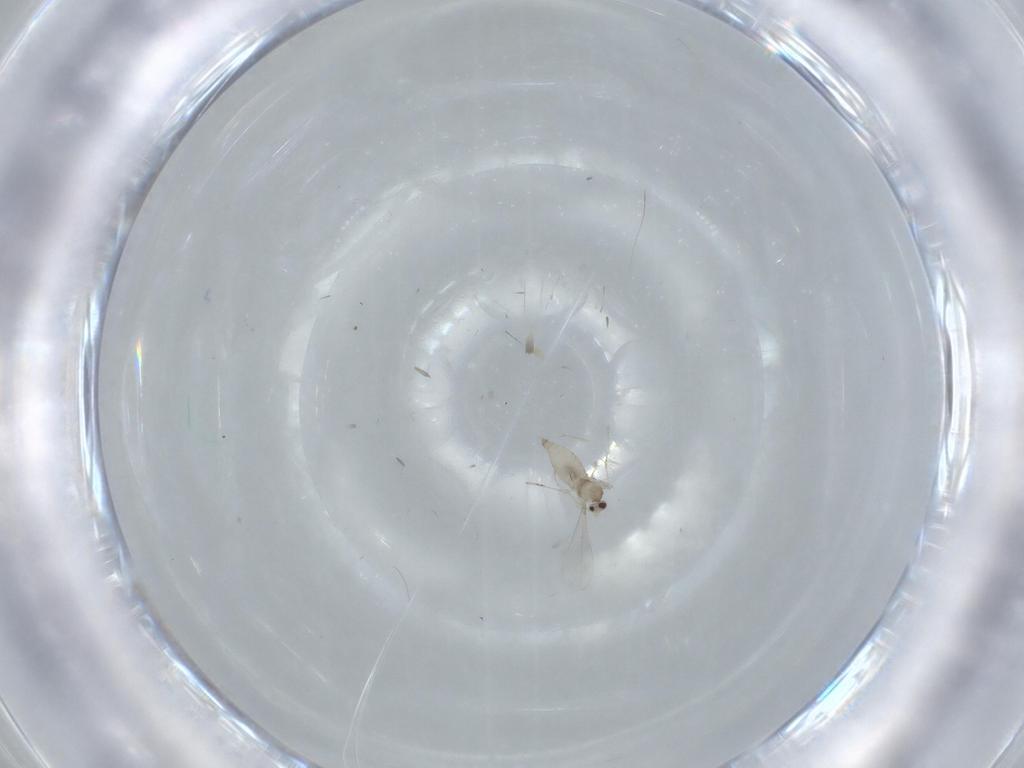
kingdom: Animalia
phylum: Arthropoda
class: Insecta
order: Diptera
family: Cecidomyiidae
